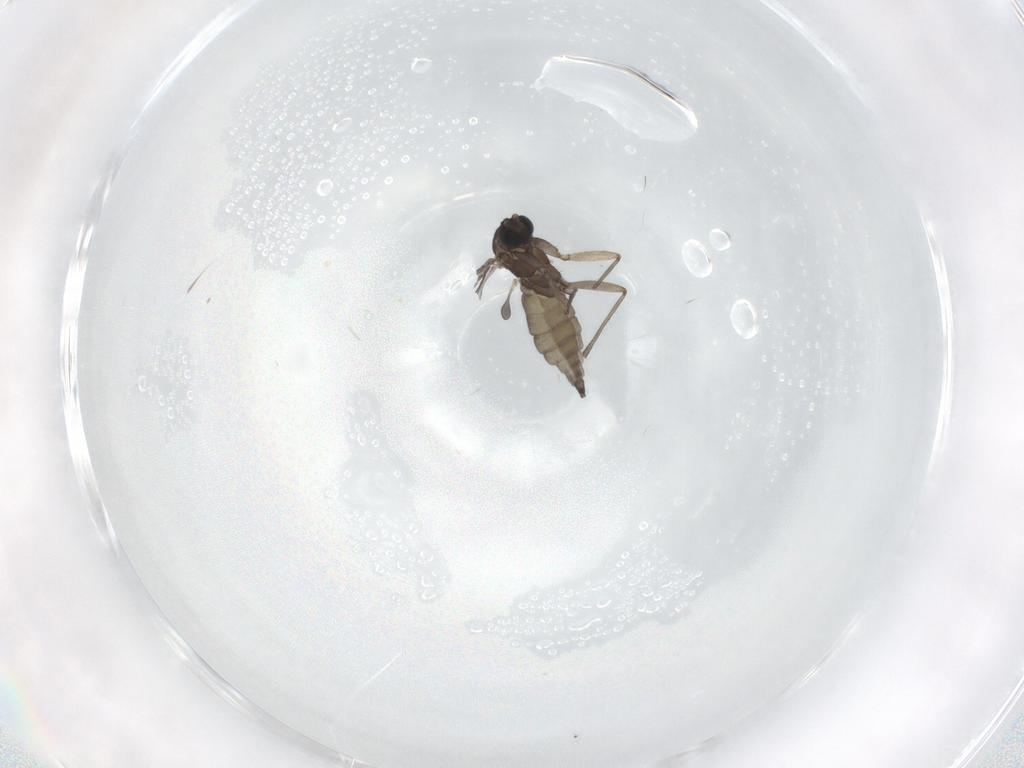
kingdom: Animalia
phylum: Arthropoda
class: Insecta
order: Diptera
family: Sciaridae
